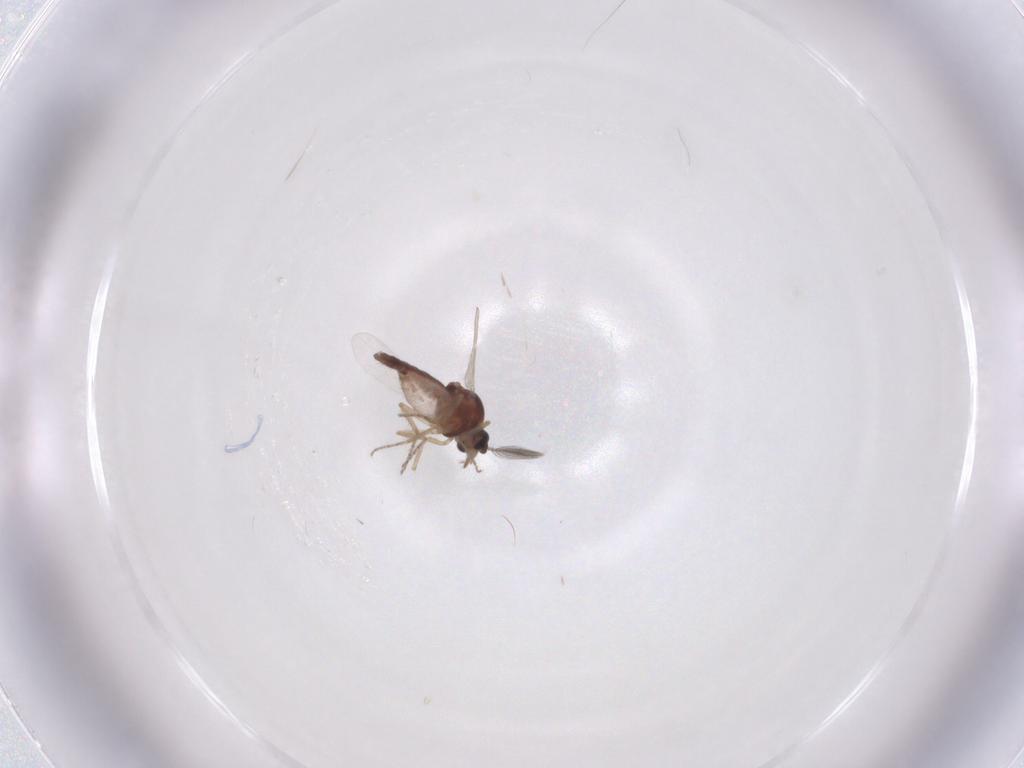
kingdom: Animalia
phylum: Arthropoda
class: Insecta
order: Diptera
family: Ceratopogonidae
